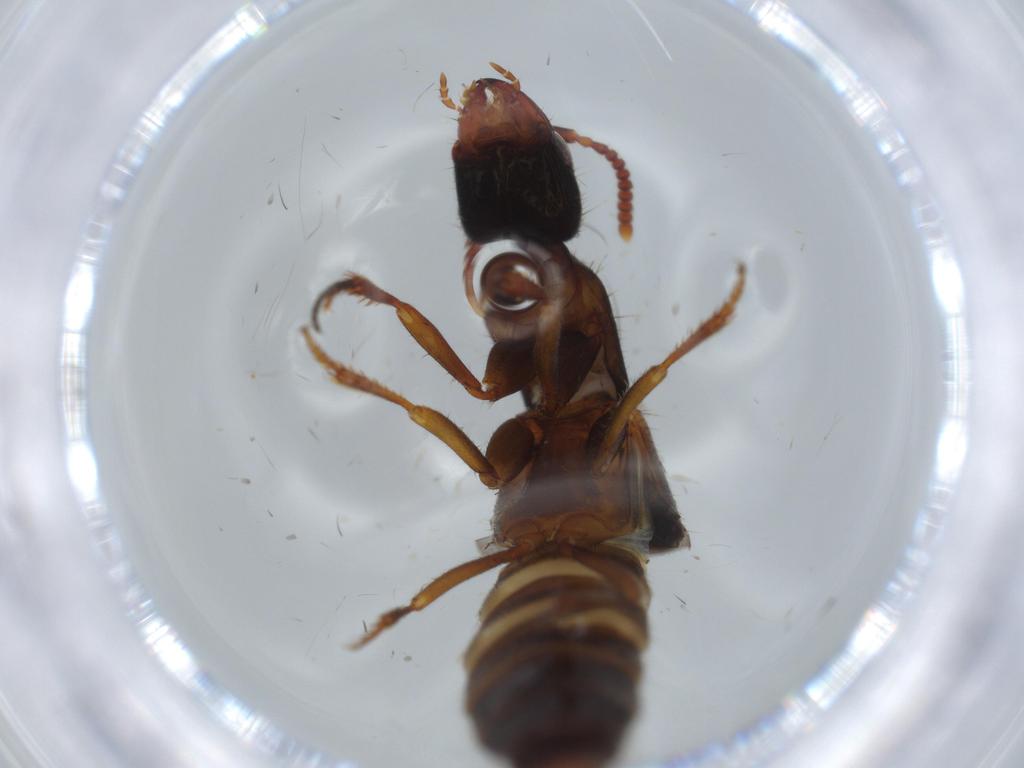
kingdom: Animalia
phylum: Arthropoda
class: Insecta
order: Coleoptera
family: Staphylinidae
